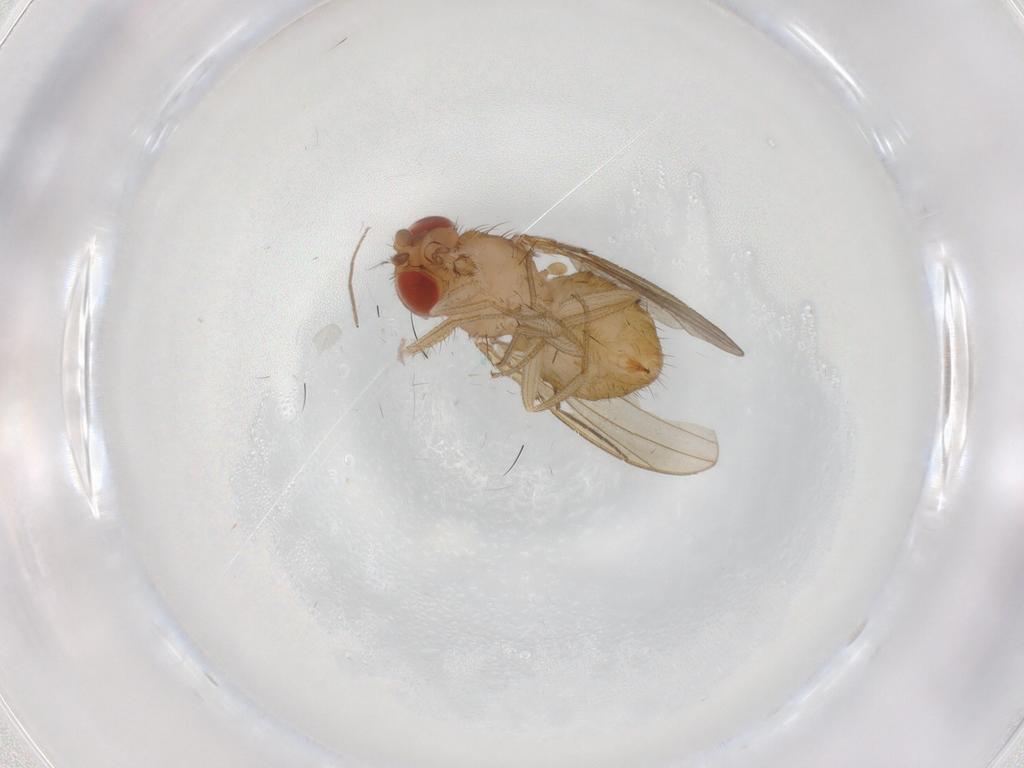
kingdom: Animalia
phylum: Arthropoda
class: Insecta
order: Diptera
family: Drosophilidae
